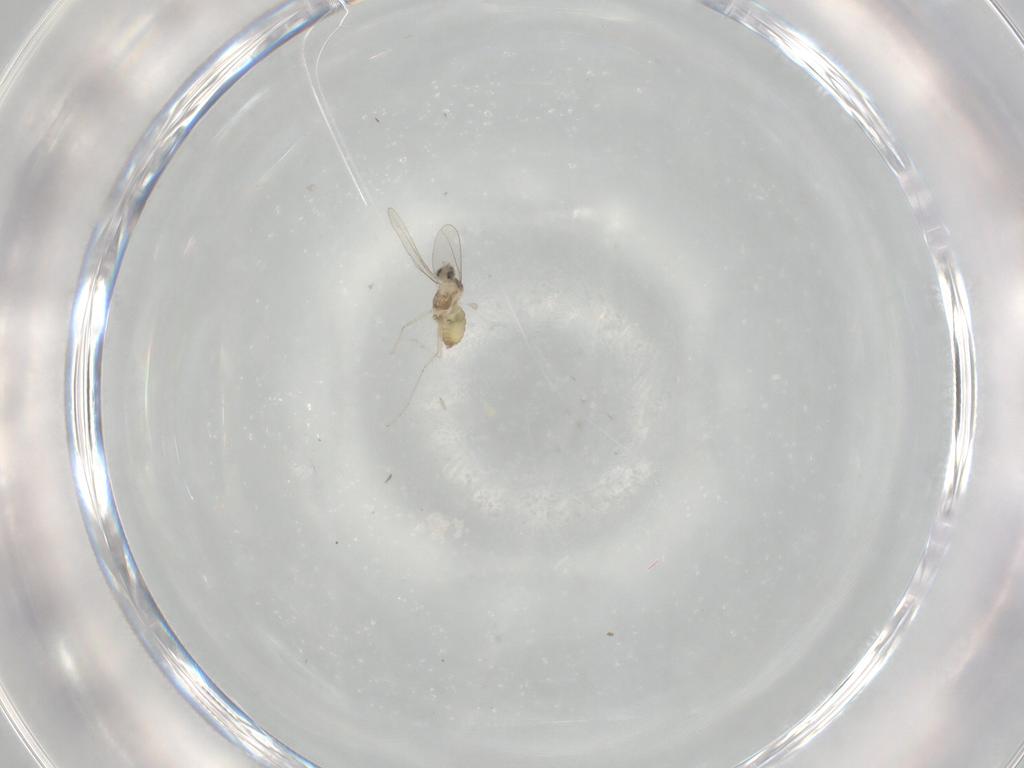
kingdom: Animalia
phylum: Arthropoda
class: Insecta
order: Diptera
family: Cecidomyiidae
